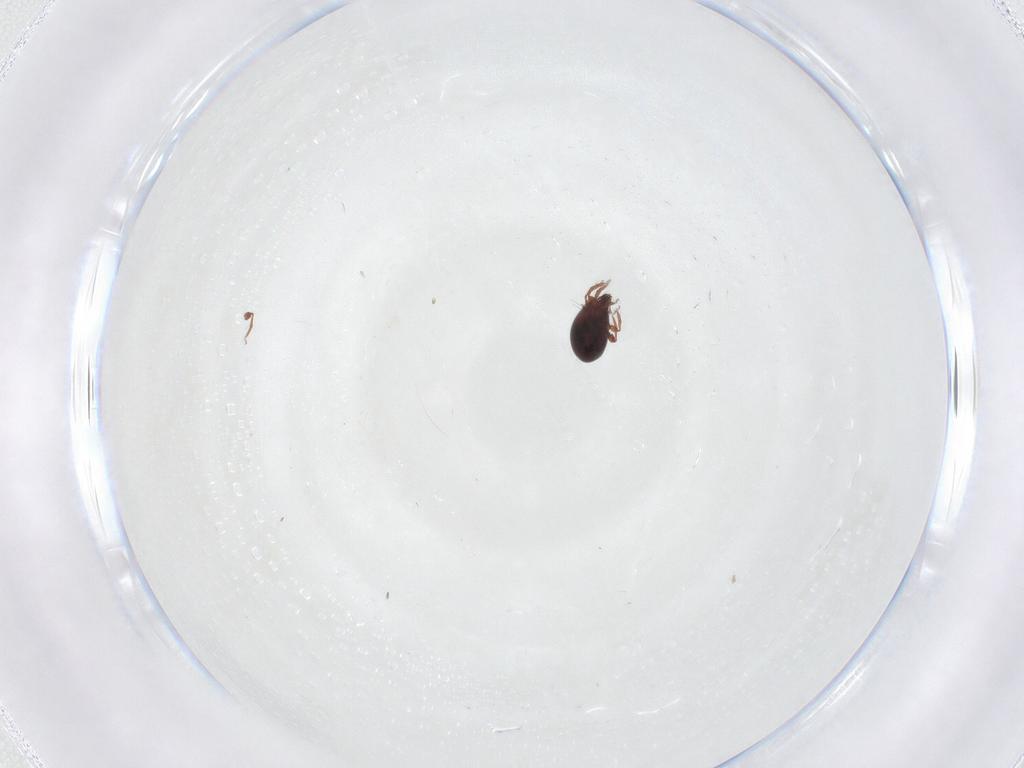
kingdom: Animalia
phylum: Arthropoda
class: Arachnida
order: Sarcoptiformes
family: Ceratozetidae
